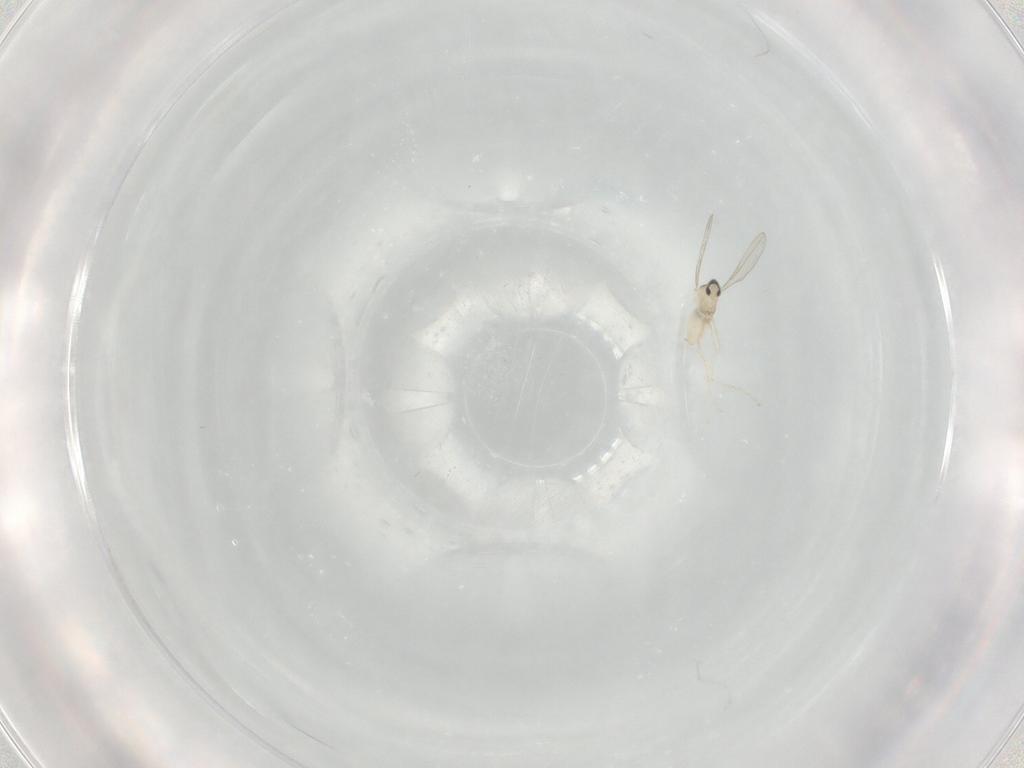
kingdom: Animalia
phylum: Arthropoda
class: Insecta
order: Diptera
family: Cecidomyiidae
